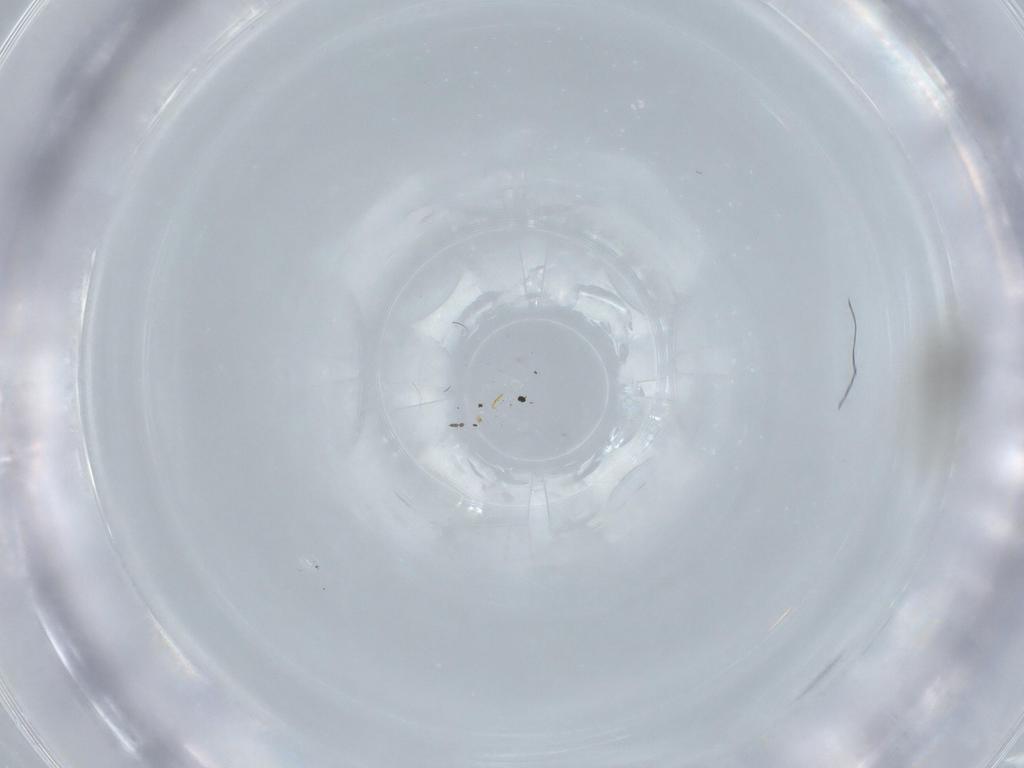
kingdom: Animalia
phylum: Arthropoda
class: Insecta
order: Diptera
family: Cecidomyiidae
